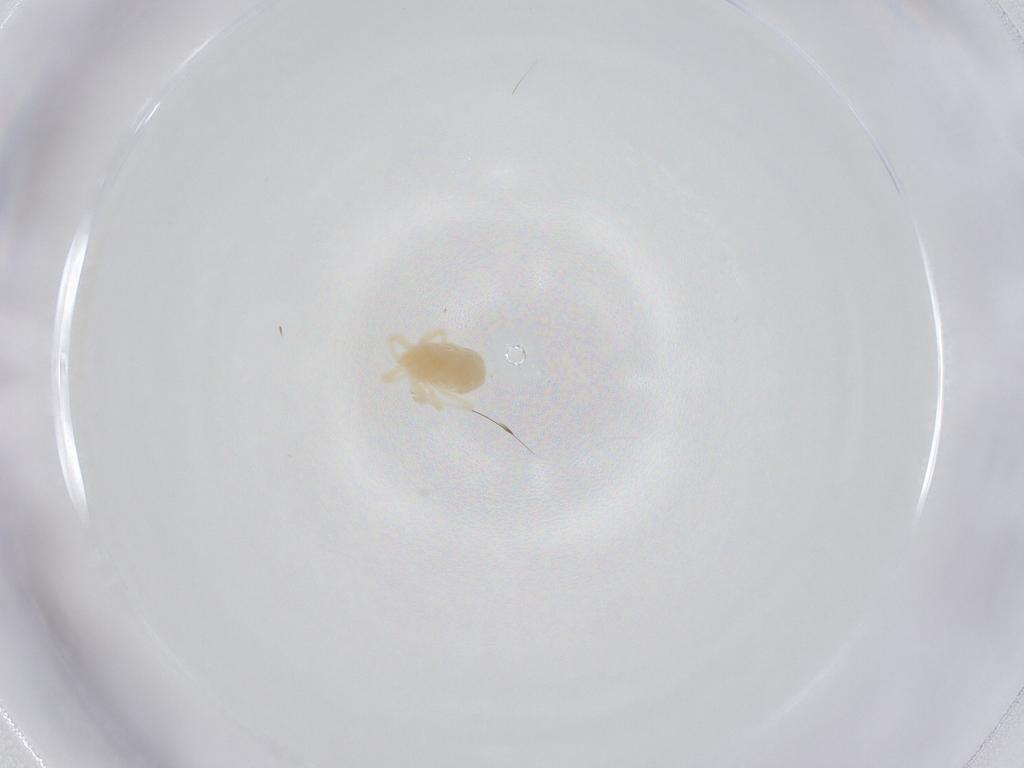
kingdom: Animalia
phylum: Arthropoda
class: Arachnida
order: Trombidiformes
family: Anystidae
